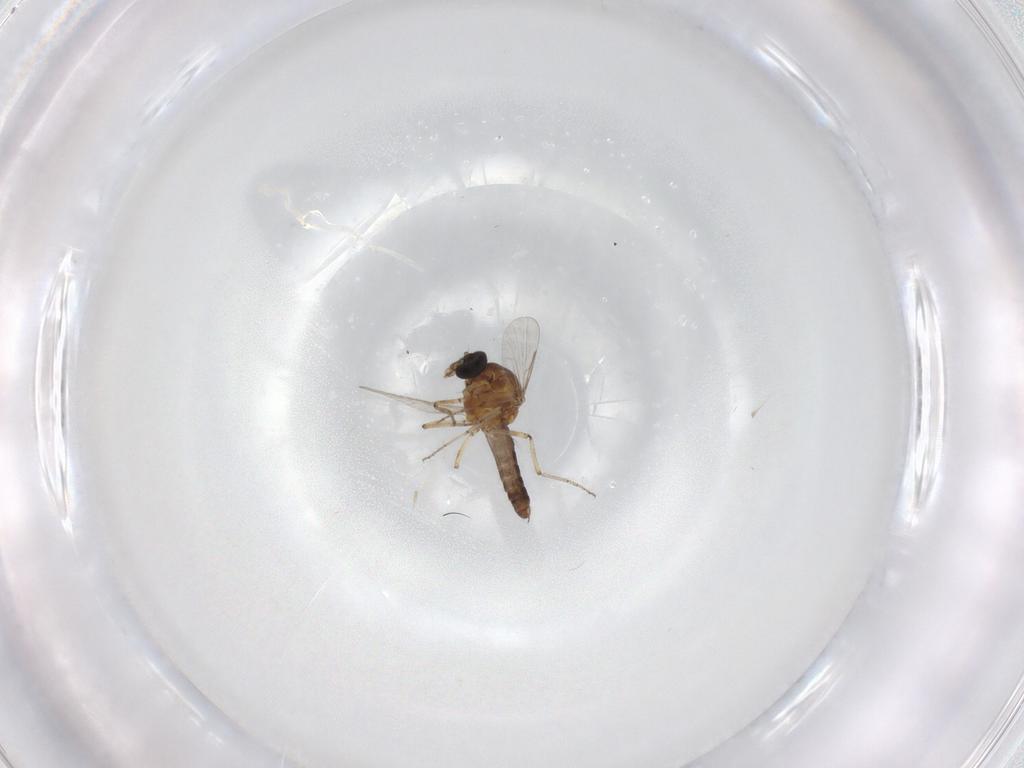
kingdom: Animalia
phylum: Arthropoda
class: Insecta
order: Diptera
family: Ceratopogonidae
